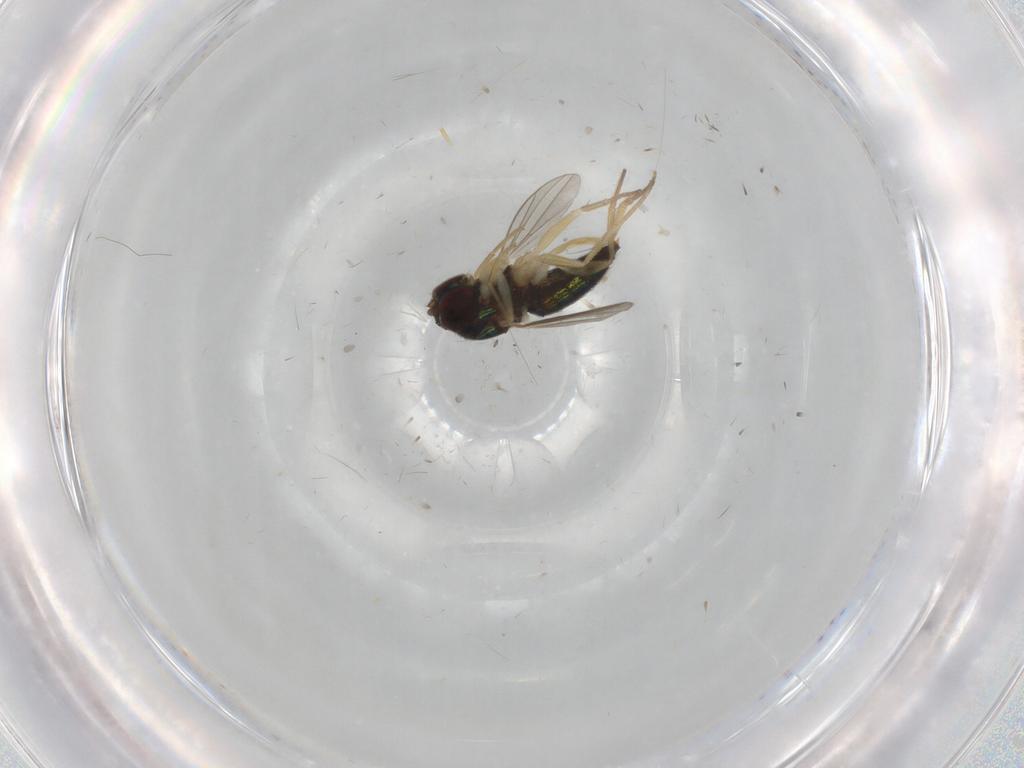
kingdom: Animalia
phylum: Arthropoda
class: Insecta
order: Diptera
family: Dolichopodidae
